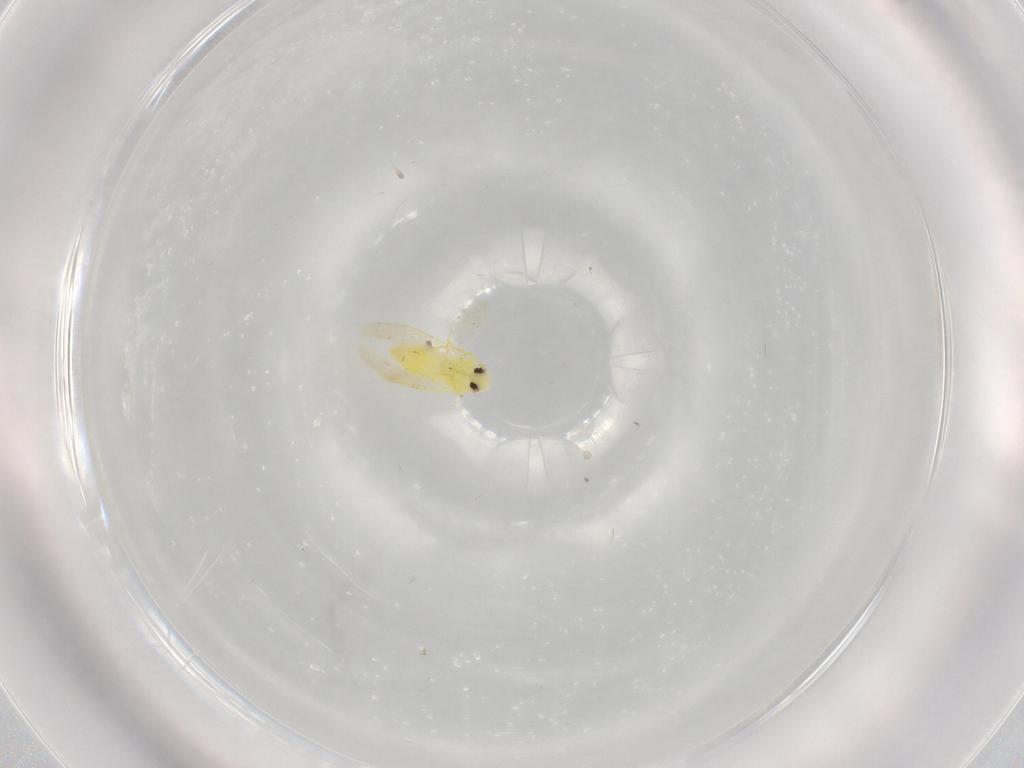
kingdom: Animalia
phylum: Arthropoda
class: Insecta
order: Hemiptera
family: Aleyrodidae
